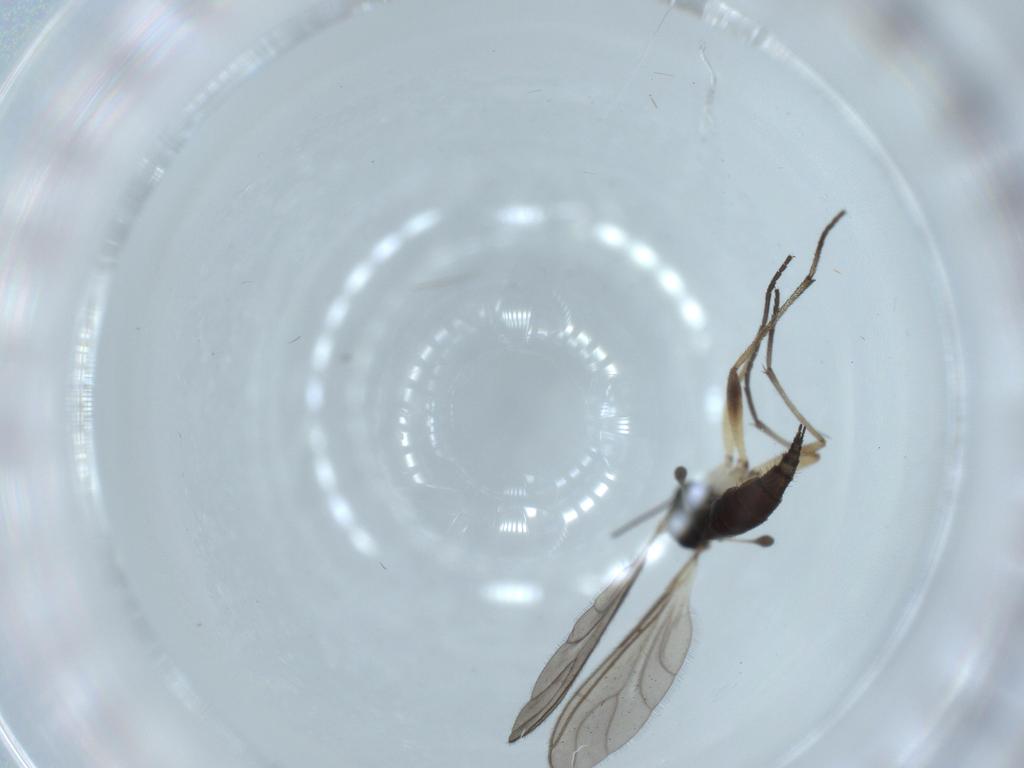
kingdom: Animalia
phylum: Arthropoda
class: Insecta
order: Diptera
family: Sciaridae
